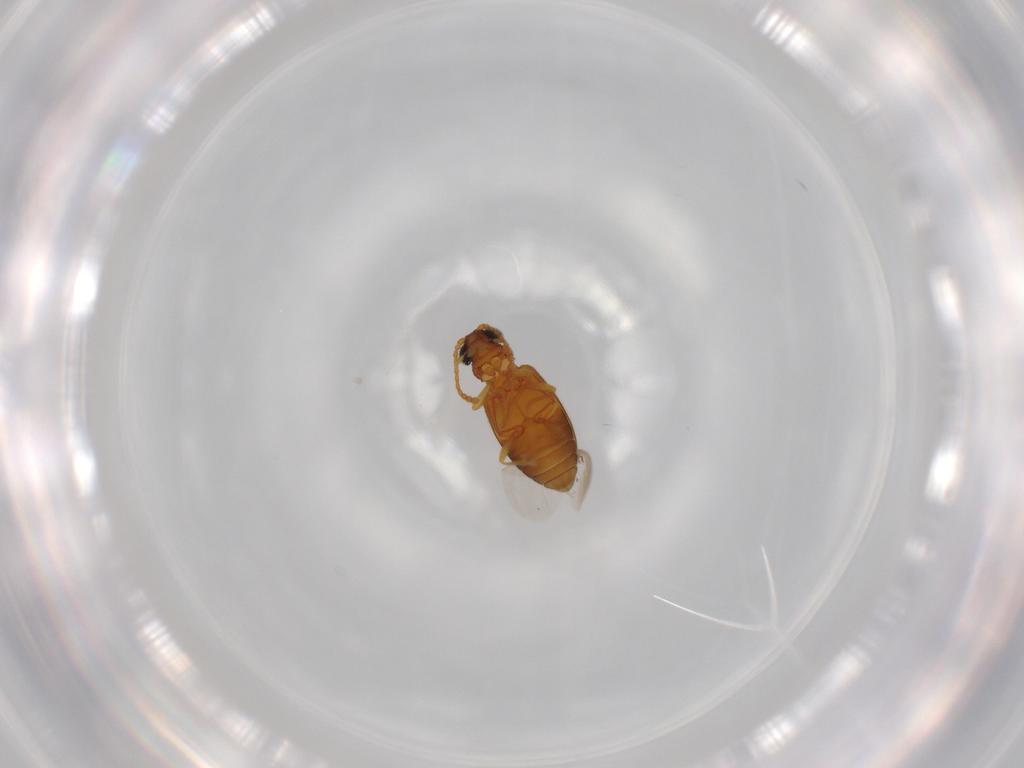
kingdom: Animalia
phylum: Arthropoda
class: Insecta
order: Coleoptera
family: Aderidae
